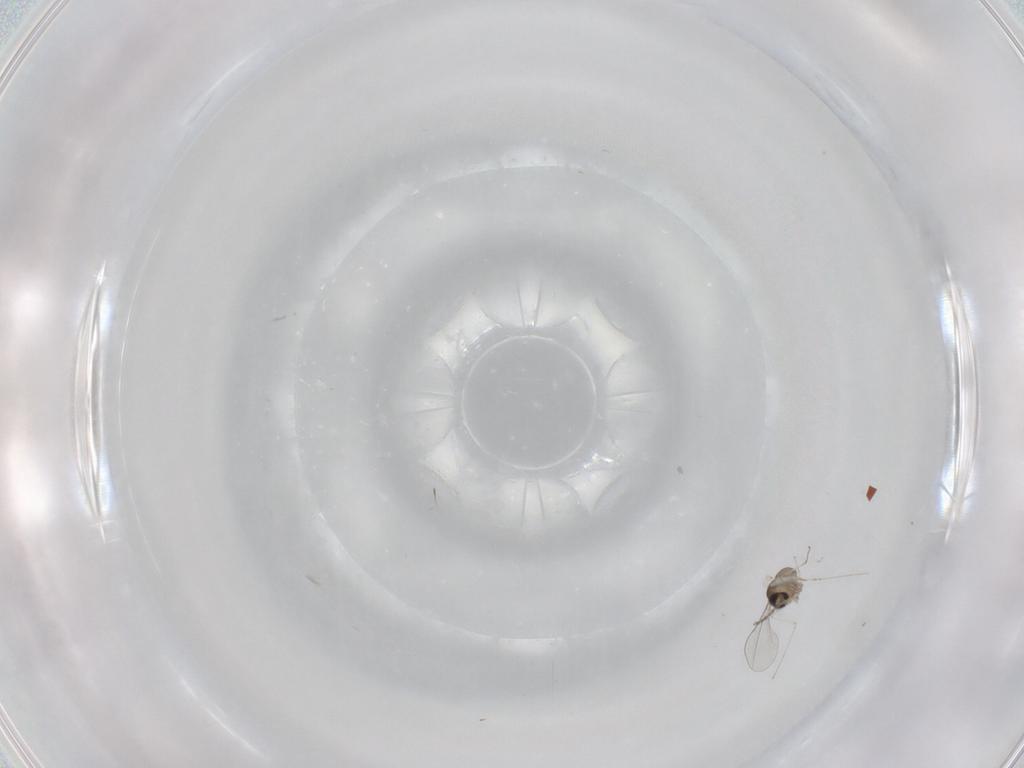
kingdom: Animalia
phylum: Arthropoda
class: Insecta
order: Diptera
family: Cecidomyiidae
